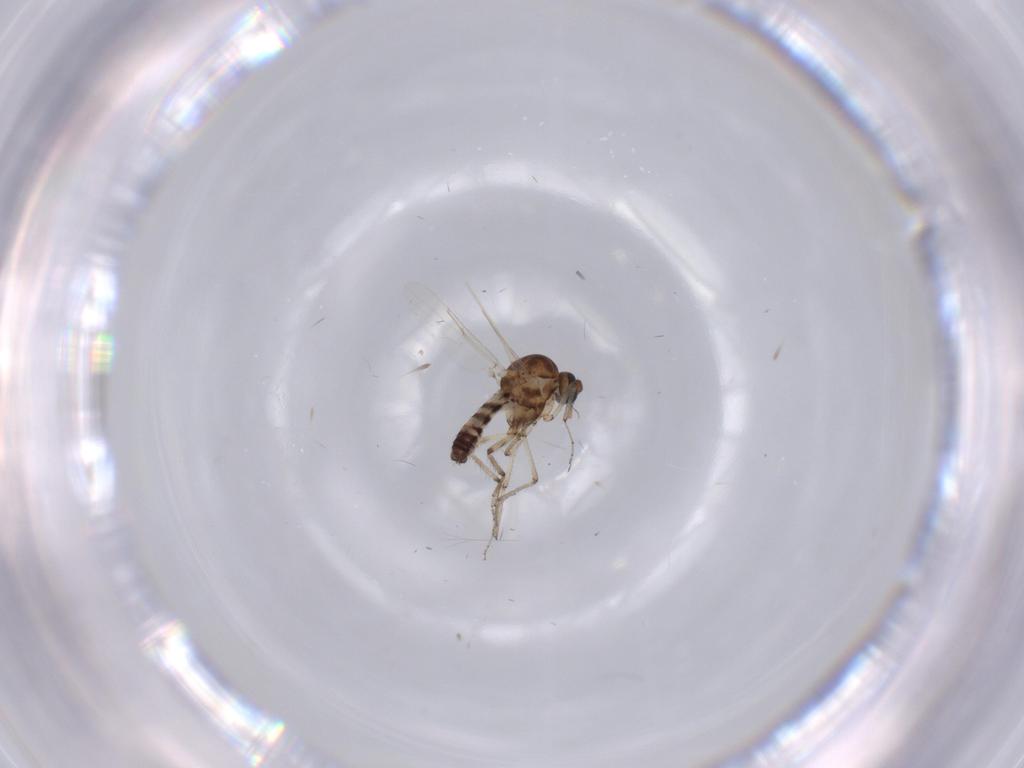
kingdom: Animalia
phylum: Arthropoda
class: Insecta
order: Diptera
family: Ceratopogonidae
